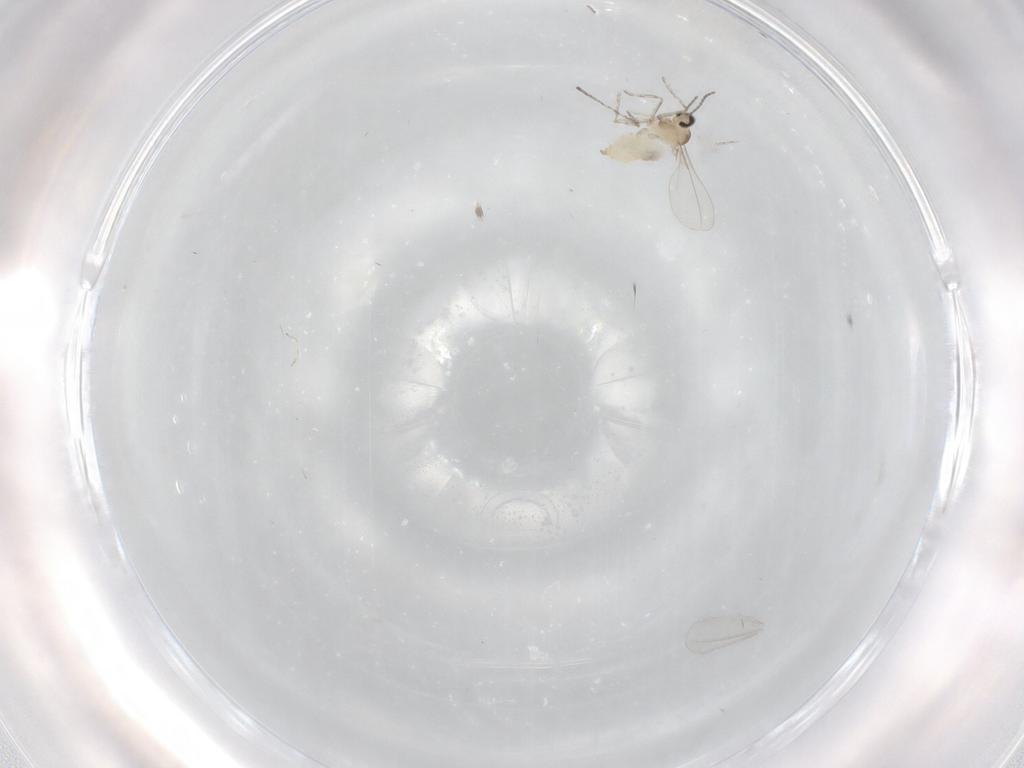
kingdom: Animalia
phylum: Arthropoda
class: Insecta
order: Diptera
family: Cecidomyiidae
